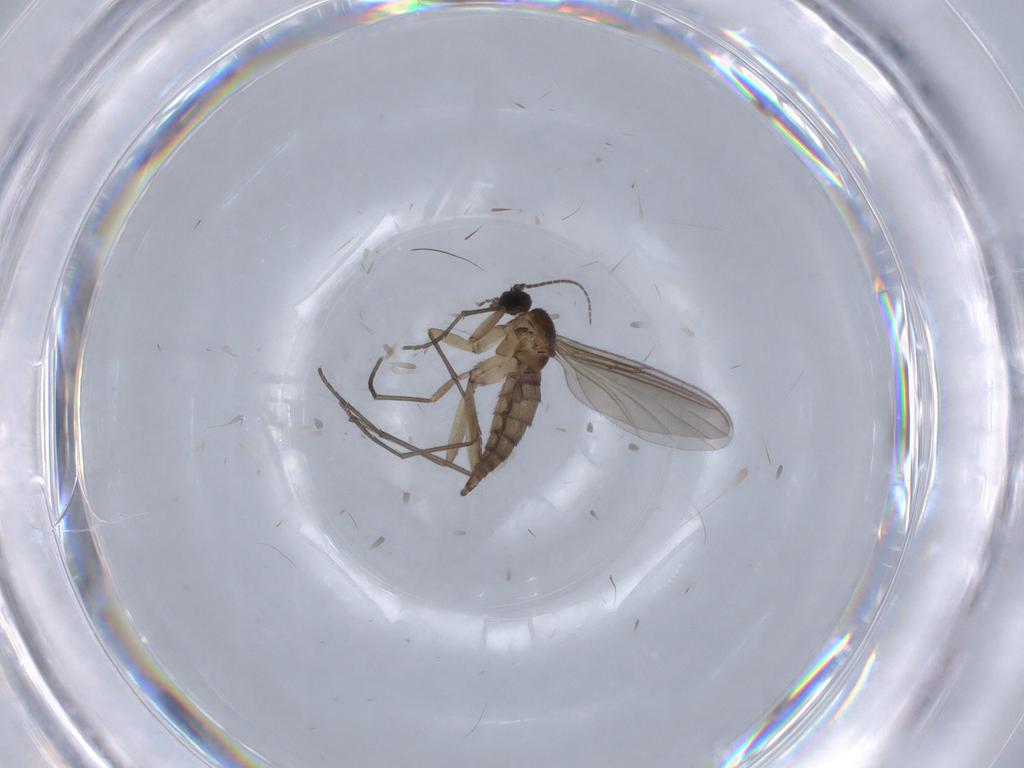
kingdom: Animalia
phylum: Arthropoda
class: Insecta
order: Diptera
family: Sciaridae
